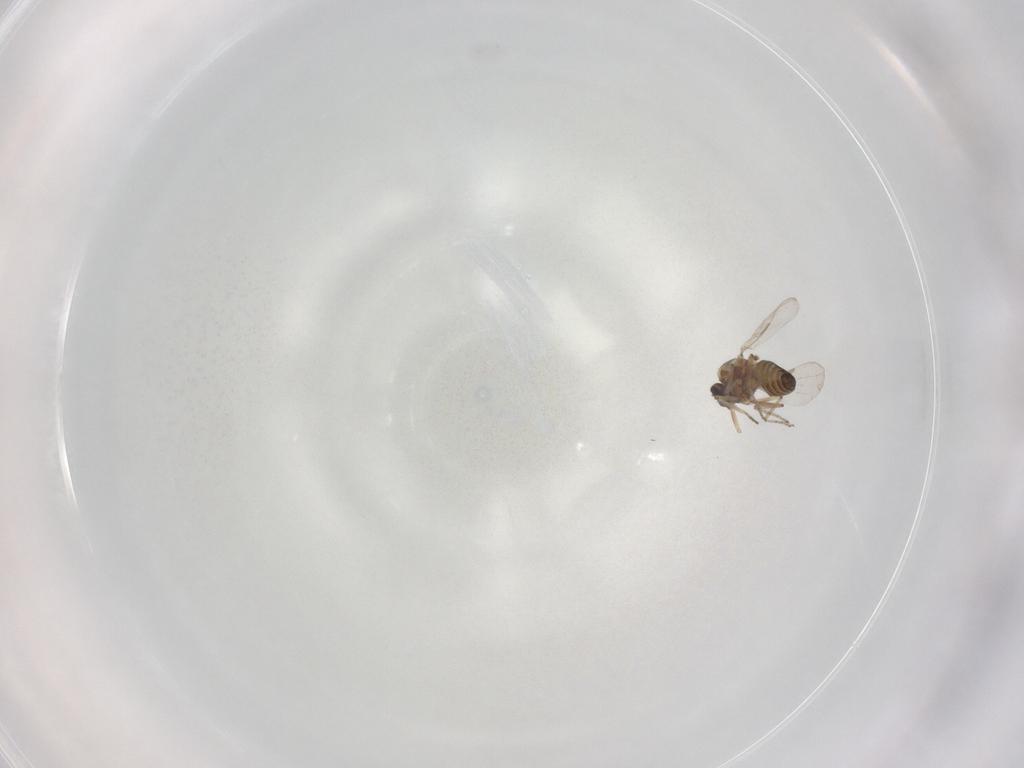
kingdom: Animalia
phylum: Arthropoda
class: Insecta
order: Diptera
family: Ceratopogonidae
